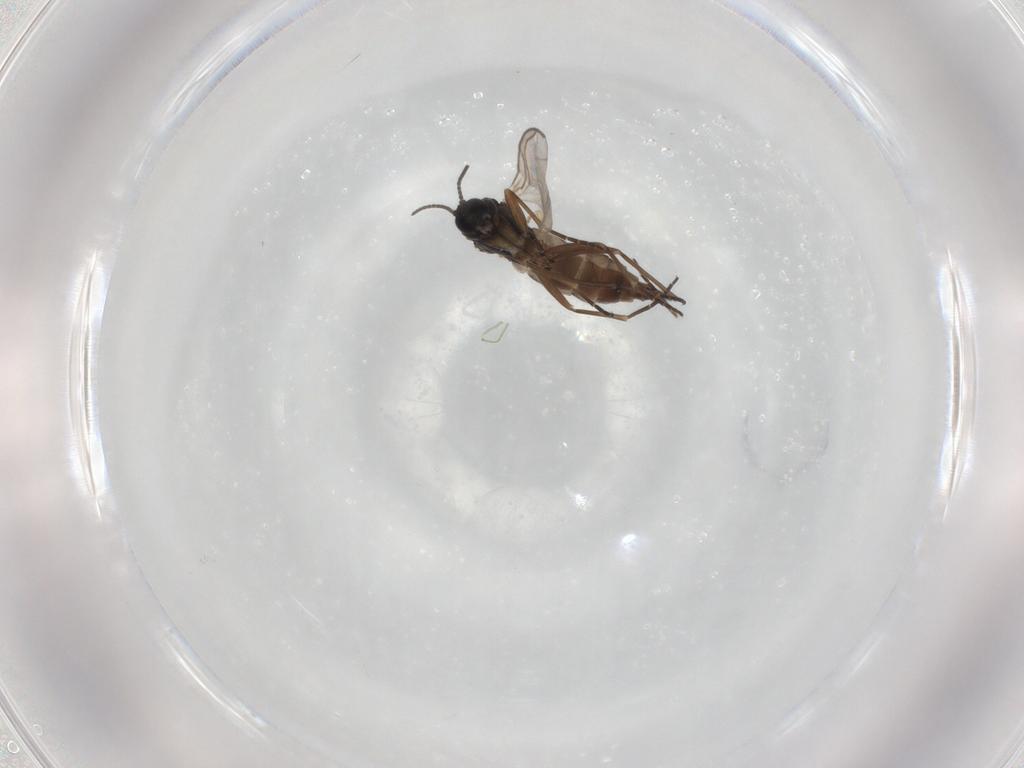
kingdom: Animalia
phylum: Arthropoda
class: Insecta
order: Diptera
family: Sciaridae
